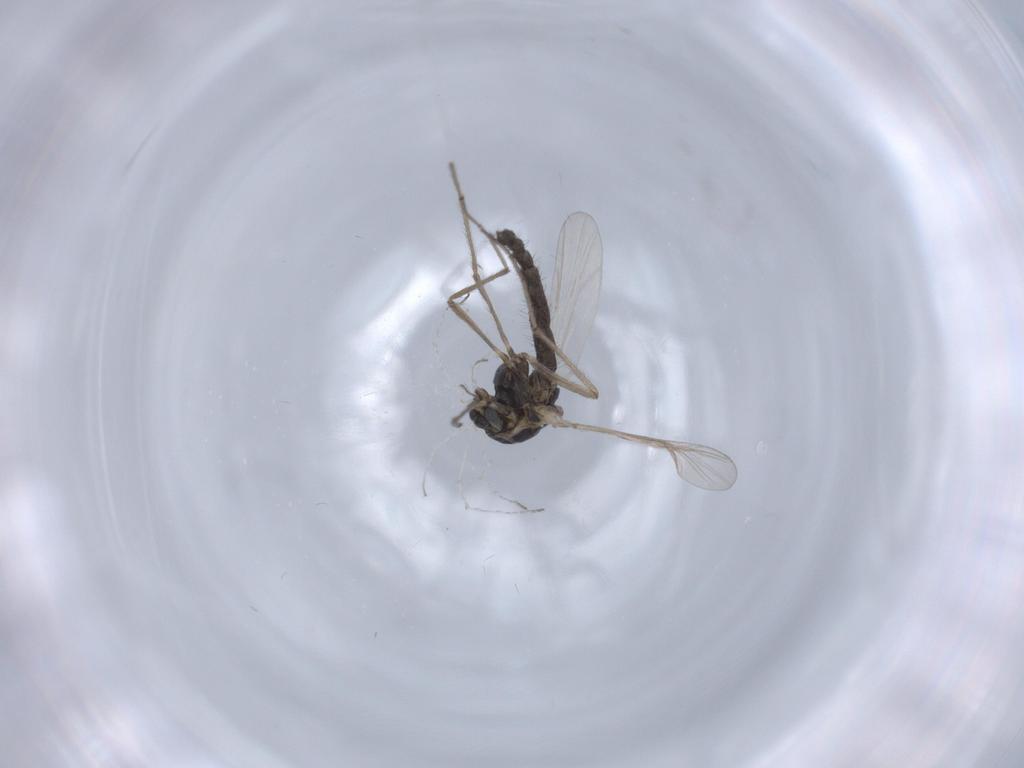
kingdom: Animalia
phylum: Arthropoda
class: Insecta
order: Diptera
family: Chironomidae
